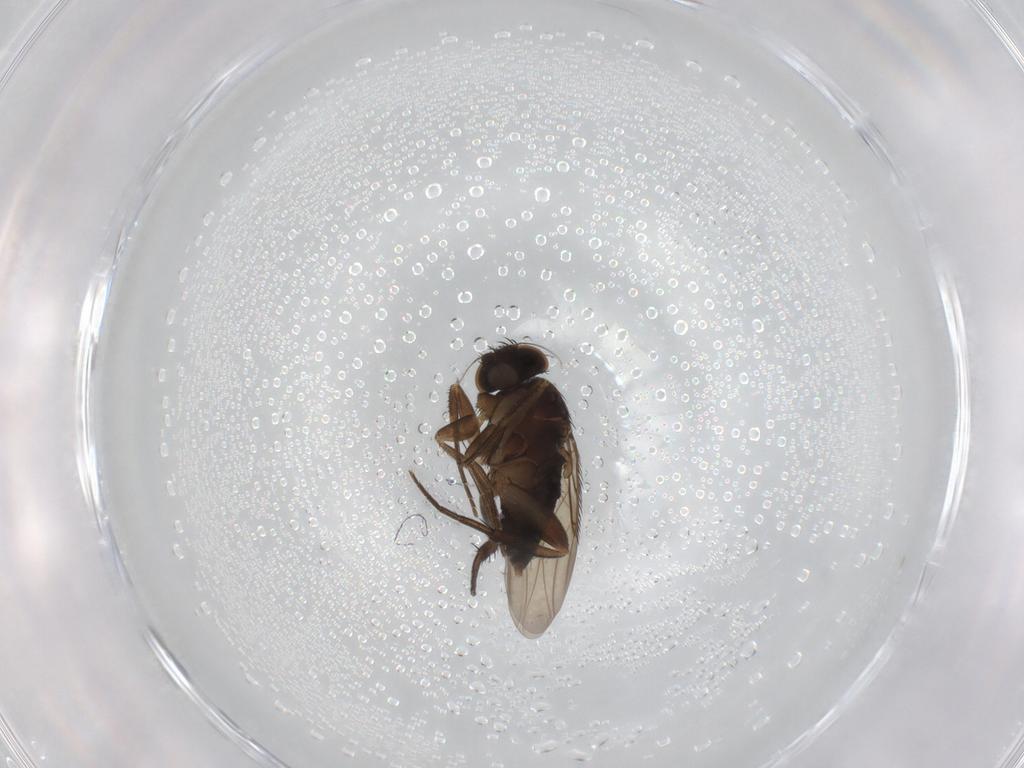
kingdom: Animalia
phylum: Arthropoda
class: Insecta
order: Diptera
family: Phoridae
